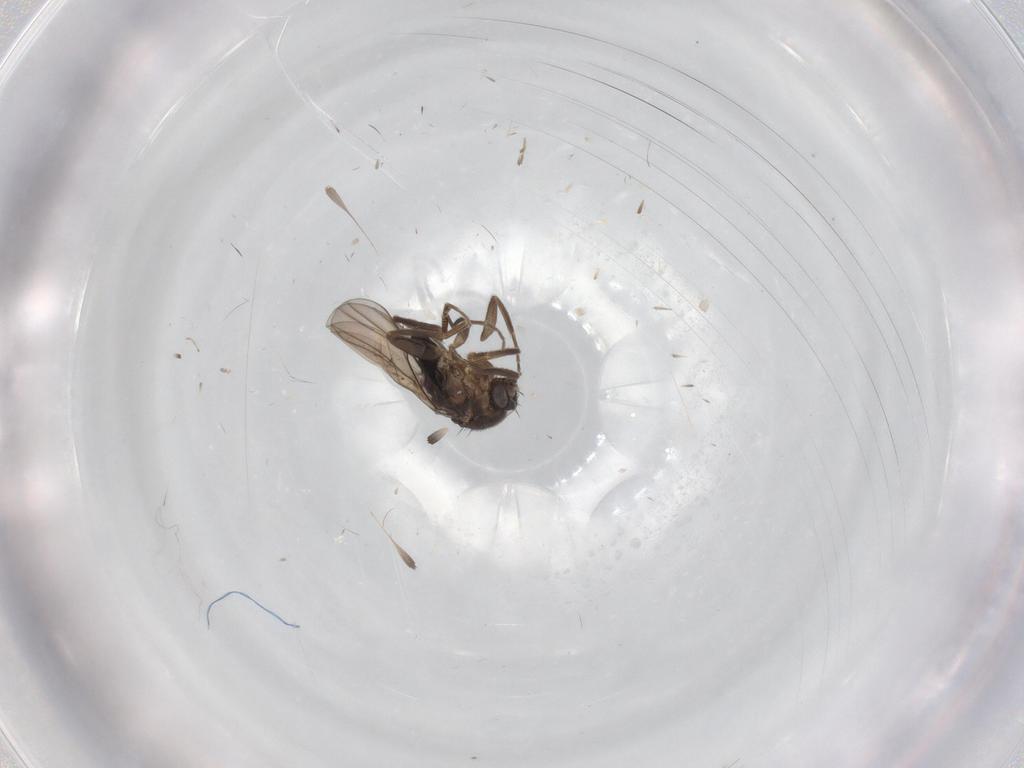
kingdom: Animalia
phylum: Arthropoda
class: Insecta
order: Diptera
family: Phoridae
